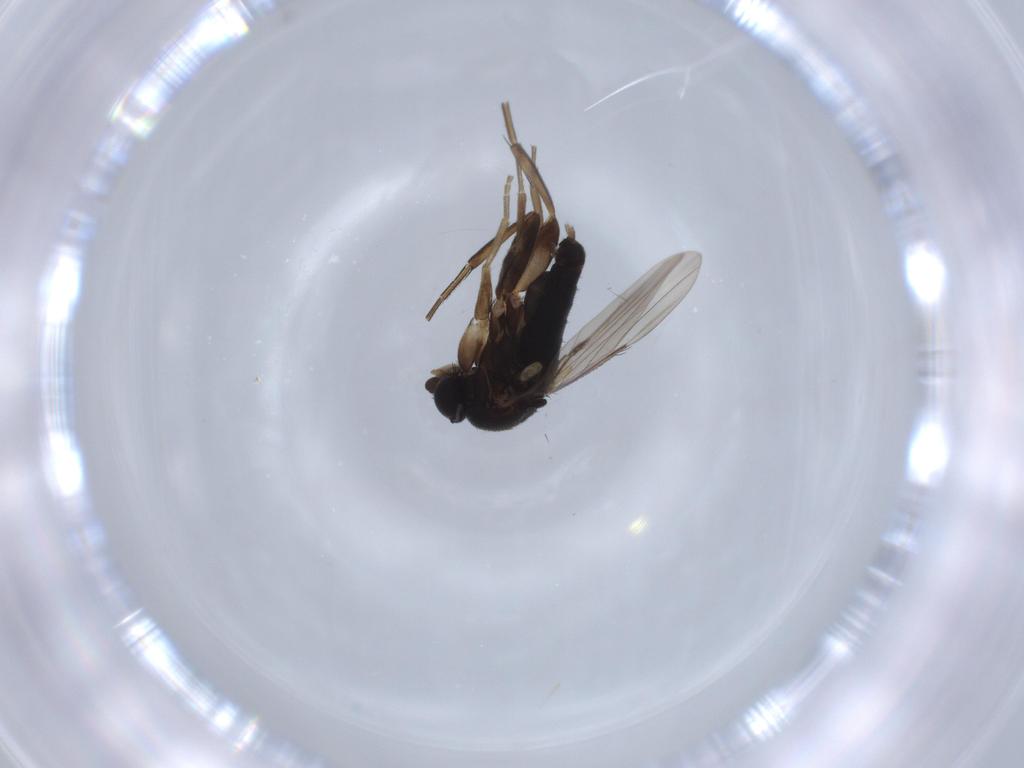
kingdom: Animalia
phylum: Arthropoda
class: Insecta
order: Diptera
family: Phoridae
